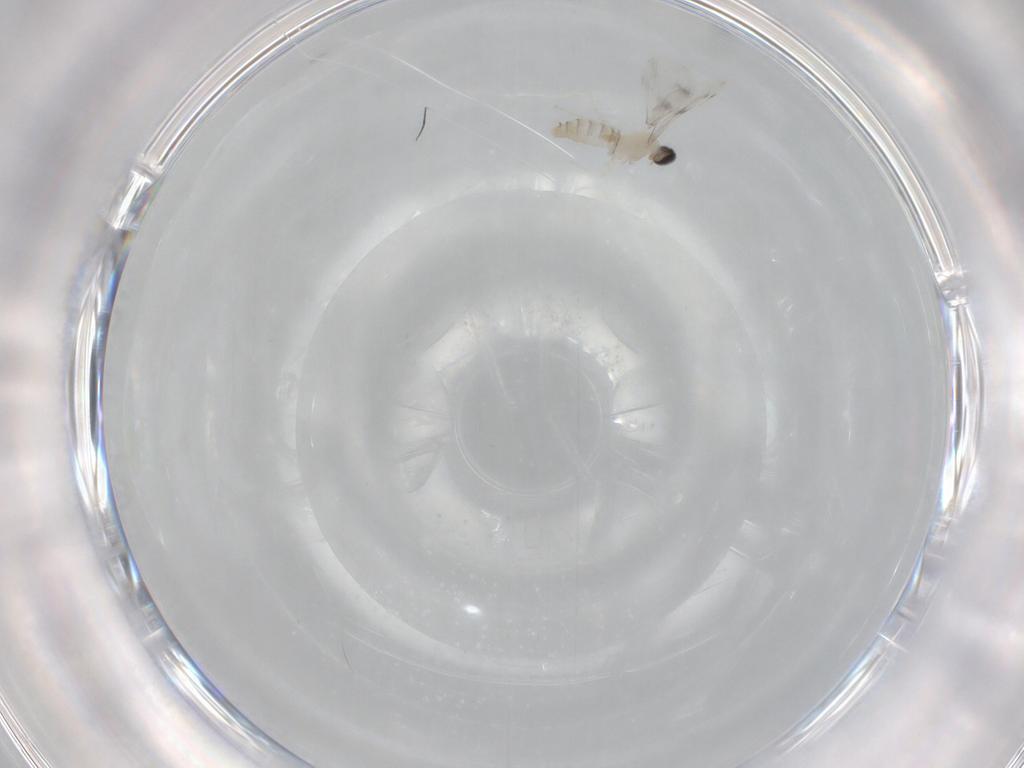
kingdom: Animalia
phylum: Arthropoda
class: Insecta
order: Diptera
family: Cecidomyiidae
